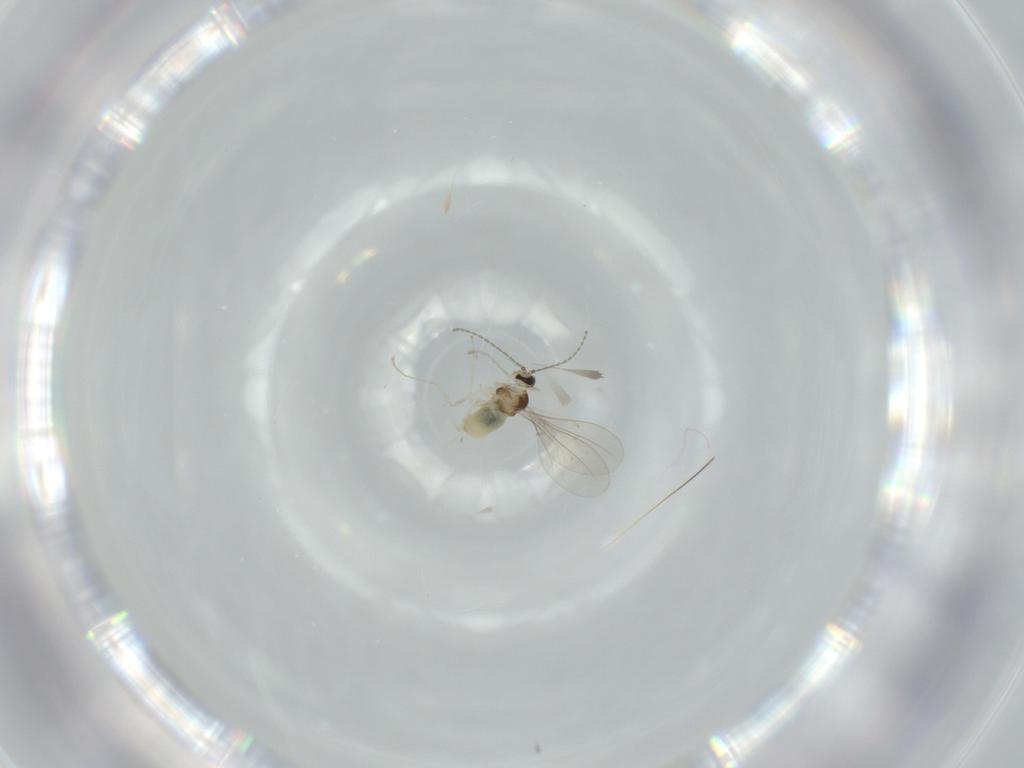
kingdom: Animalia
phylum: Arthropoda
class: Insecta
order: Diptera
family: Cecidomyiidae
